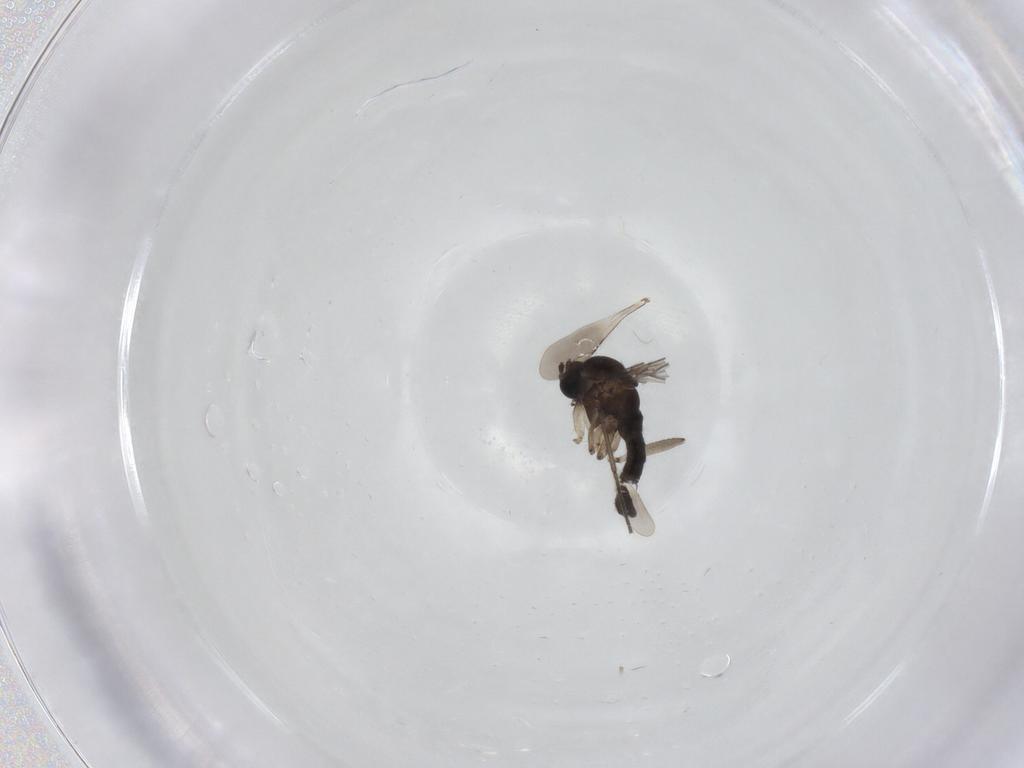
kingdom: Animalia
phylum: Arthropoda
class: Insecta
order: Diptera
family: Sciaridae
